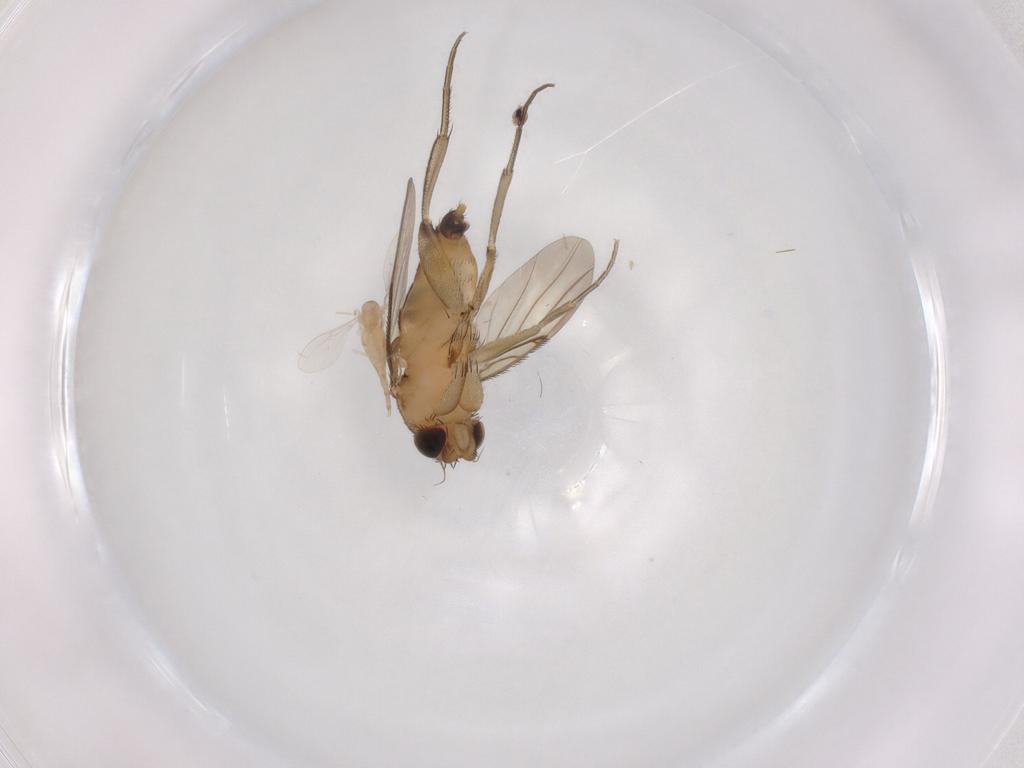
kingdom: Animalia
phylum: Arthropoda
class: Insecta
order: Diptera
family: Phoridae
